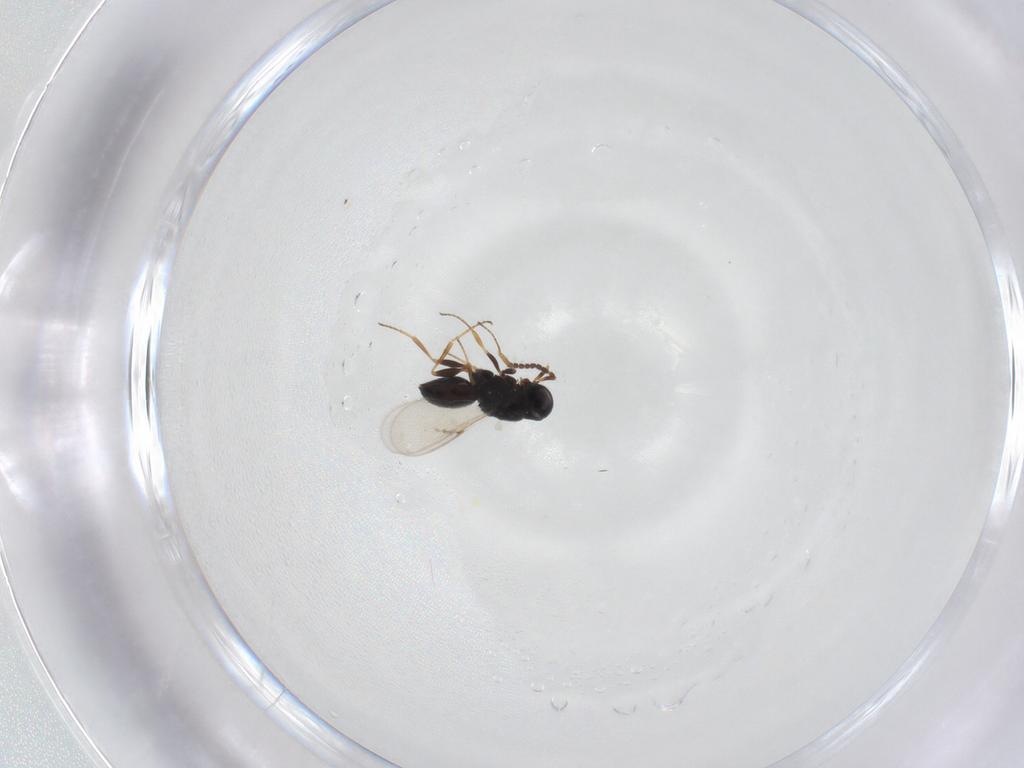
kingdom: Animalia
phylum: Arthropoda
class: Insecta
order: Hymenoptera
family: Scelionidae
